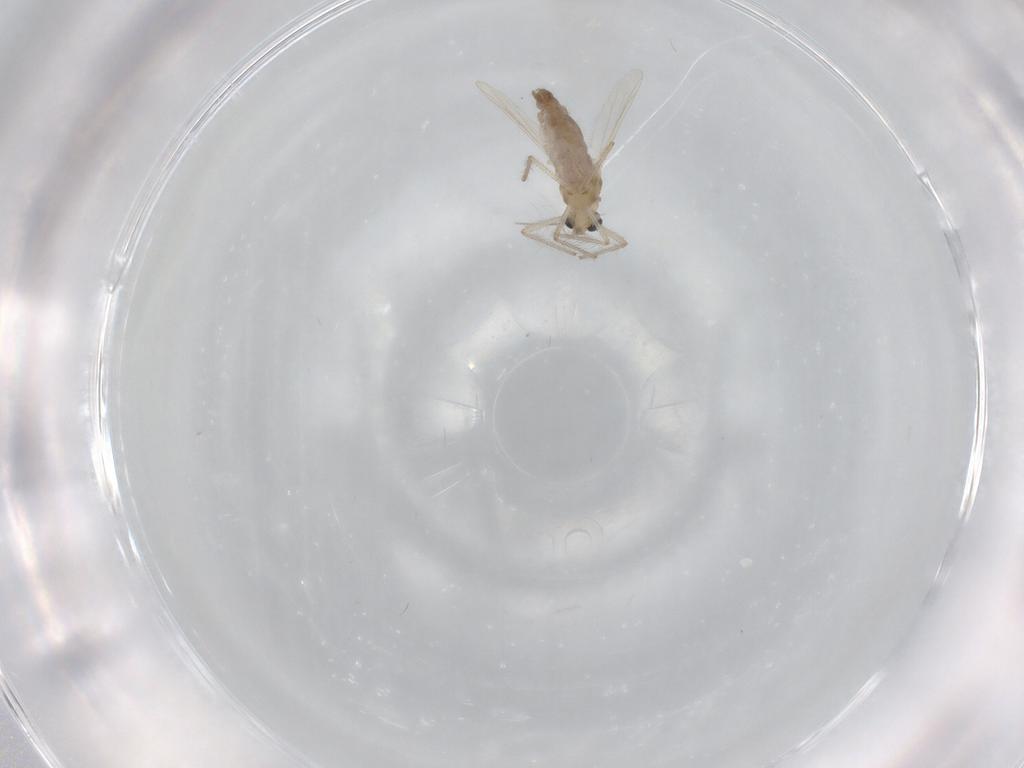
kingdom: Animalia
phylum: Arthropoda
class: Insecta
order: Diptera
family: Chironomidae
